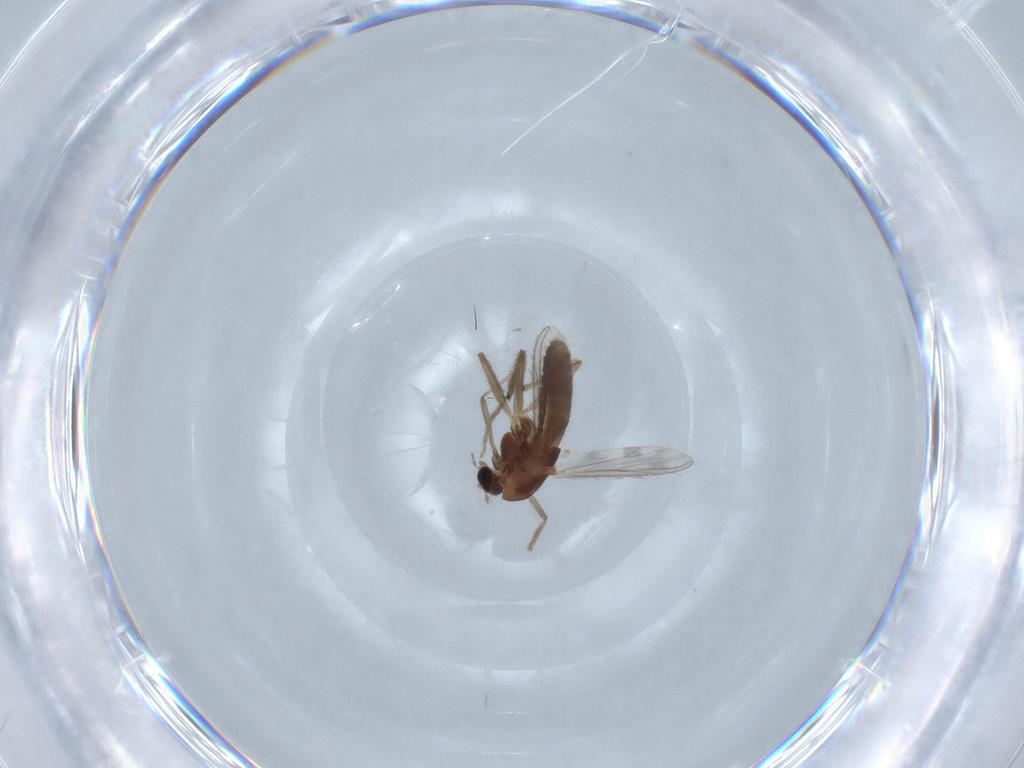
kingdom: Animalia
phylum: Arthropoda
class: Insecta
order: Diptera
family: Chironomidae
